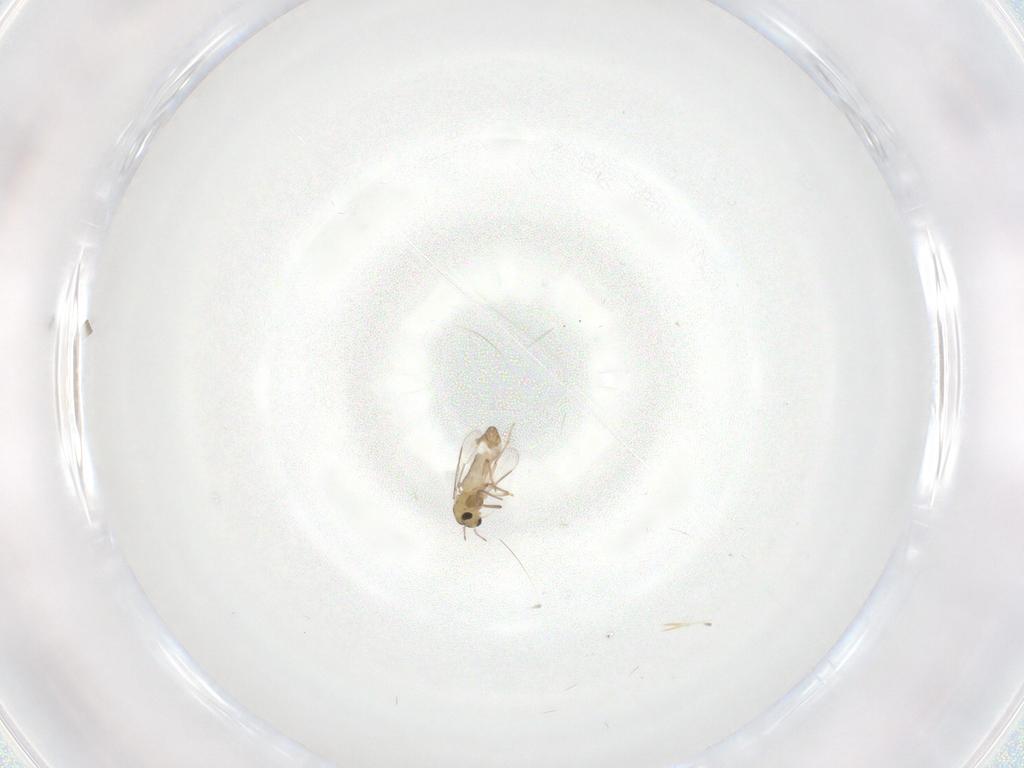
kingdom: Animalia
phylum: Arthropoda
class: Insecta
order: Diptera
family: Chironomidae
